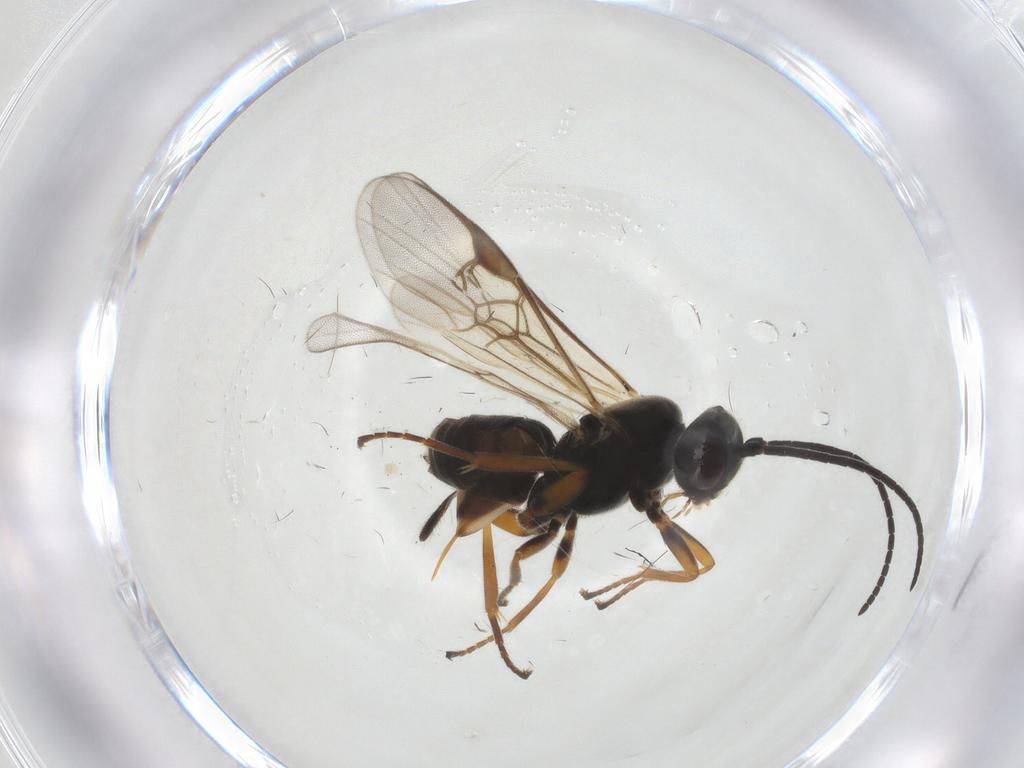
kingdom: Animalia
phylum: Arthropoda
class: Insecta
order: Hymenoptera
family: Braconidae
